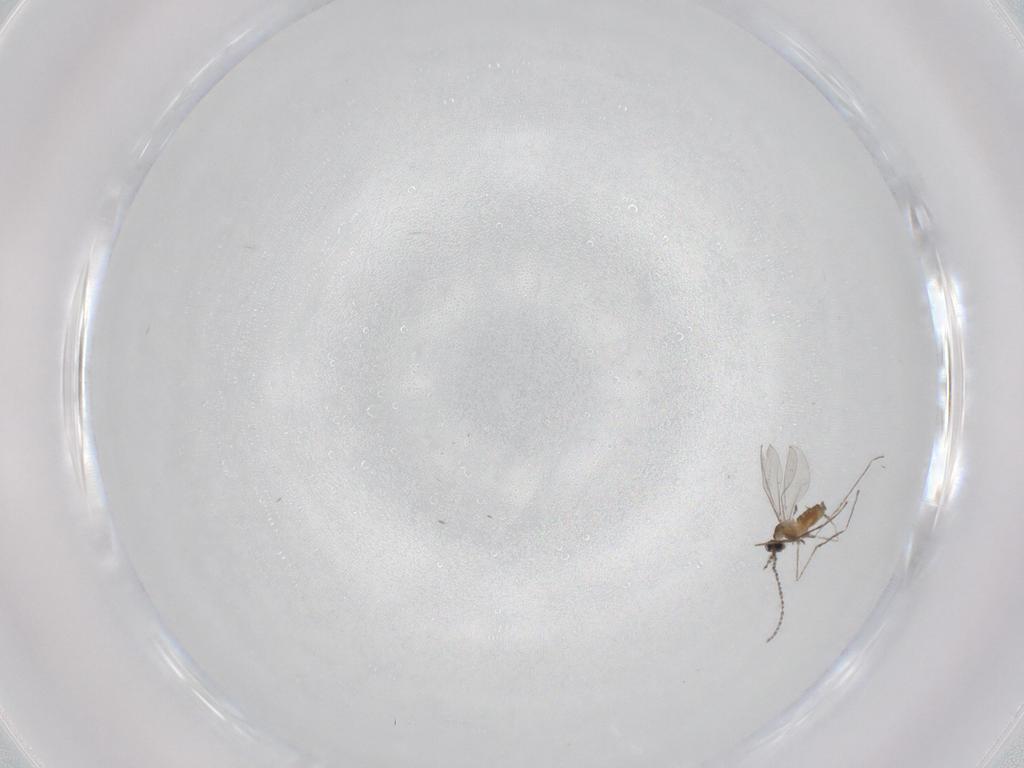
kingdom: Animalia
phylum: Arthropoda
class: Insecta
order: Diptera
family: Cecidomyiidae
